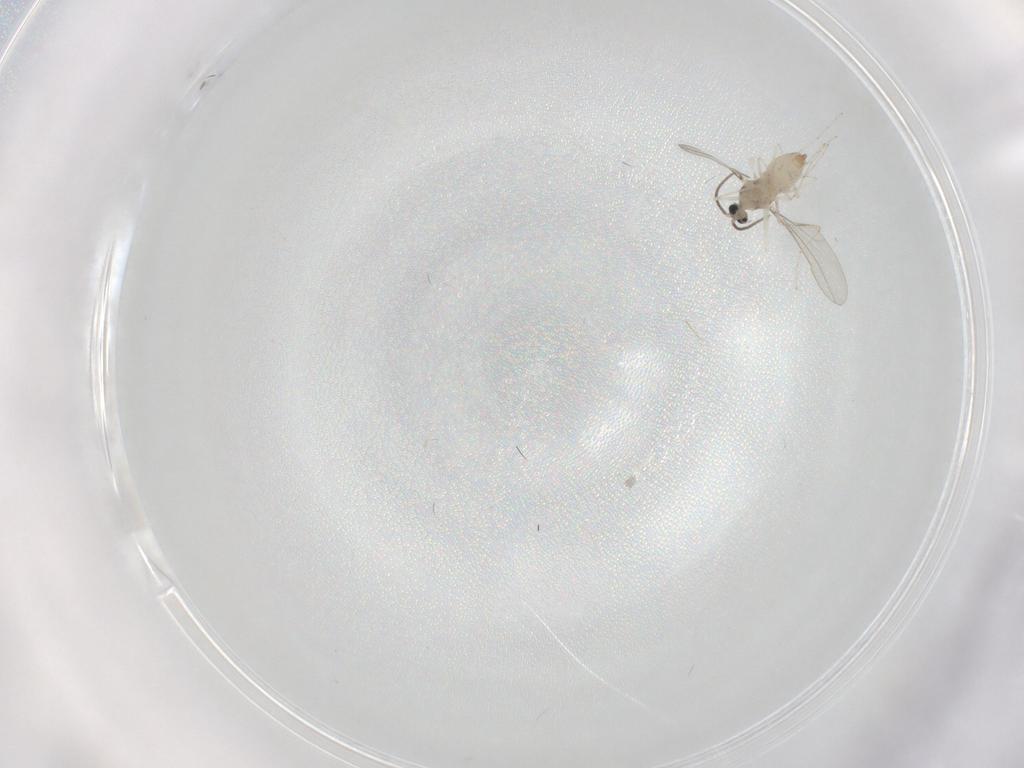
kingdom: Animalia
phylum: Arthropoda
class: Insecta
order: Diptera
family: Cecidomyiidae
